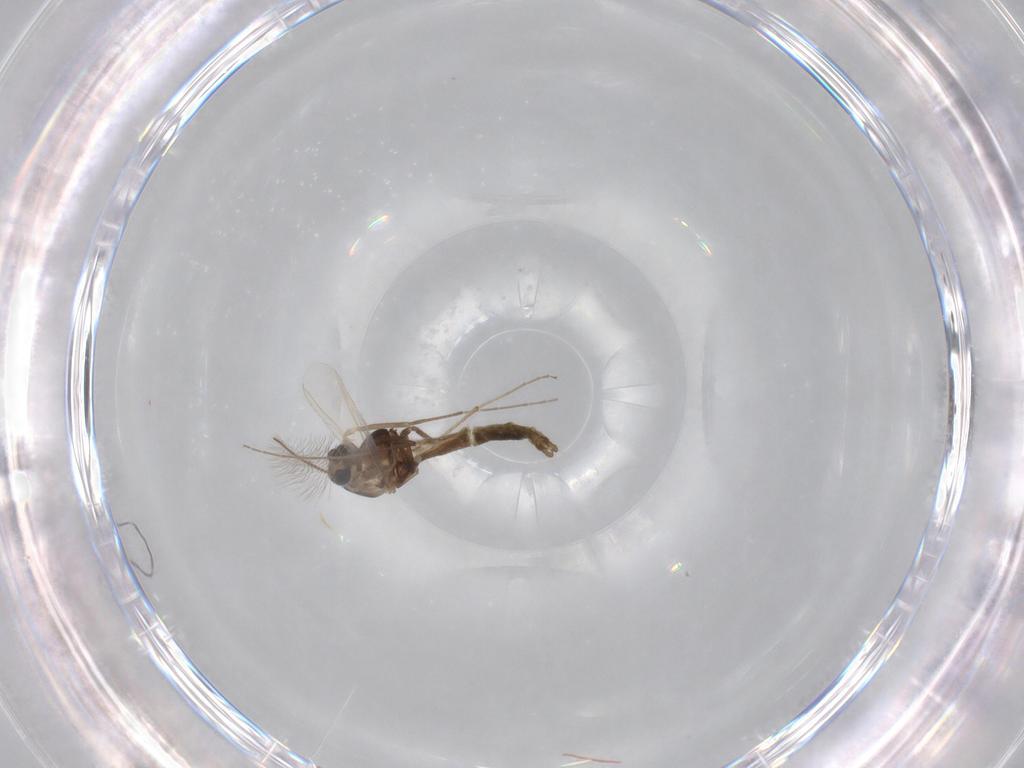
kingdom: Animalia
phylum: Arthropoda
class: Insecta
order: Diptera
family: Chironomidae
